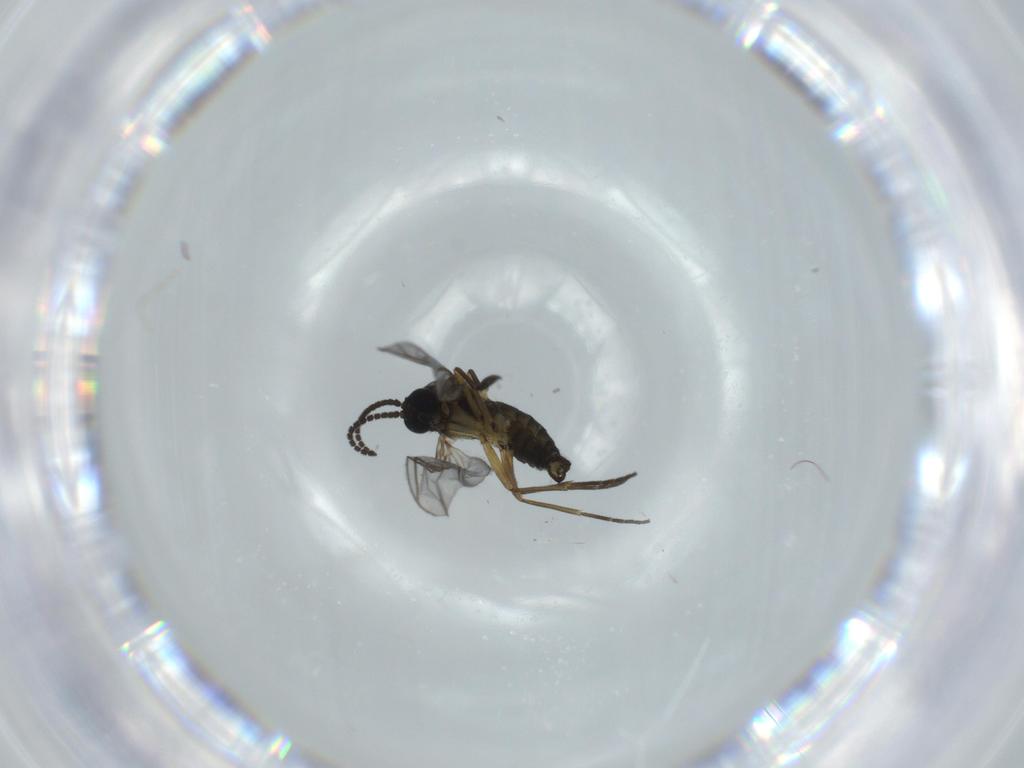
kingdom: Animalia
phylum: Arthropoda
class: Insecta
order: Diptera
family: Sciaridae
